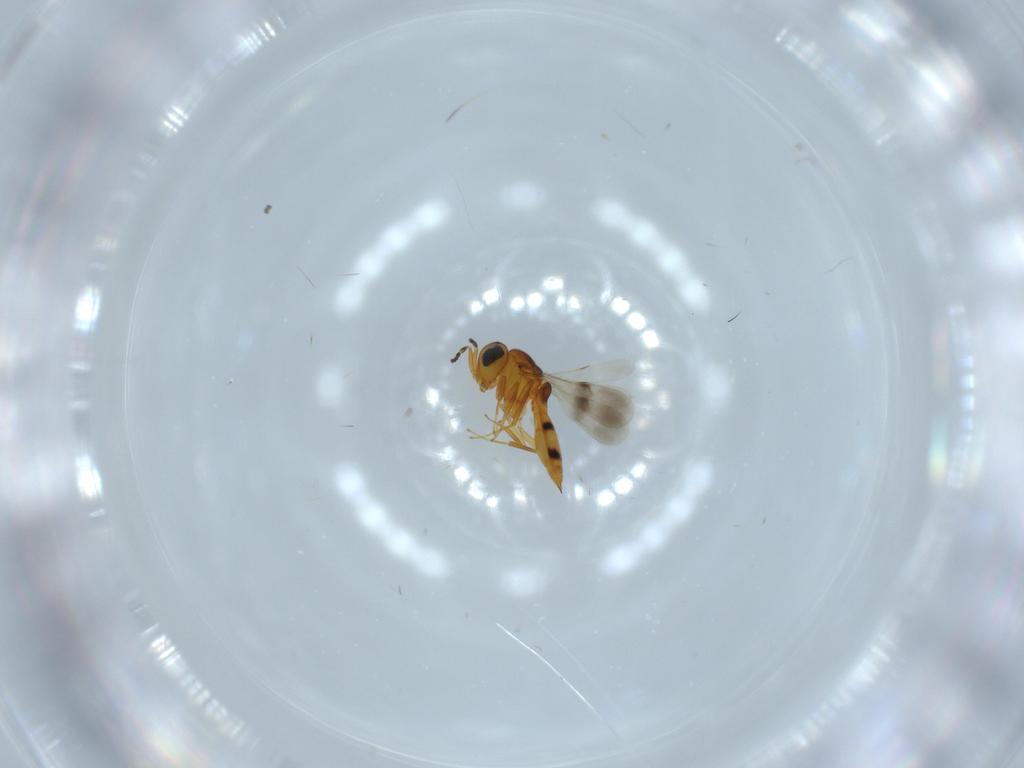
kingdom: Animalia
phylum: Arthropoda
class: Insecta
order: Hymenoptera
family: Scelionidae
